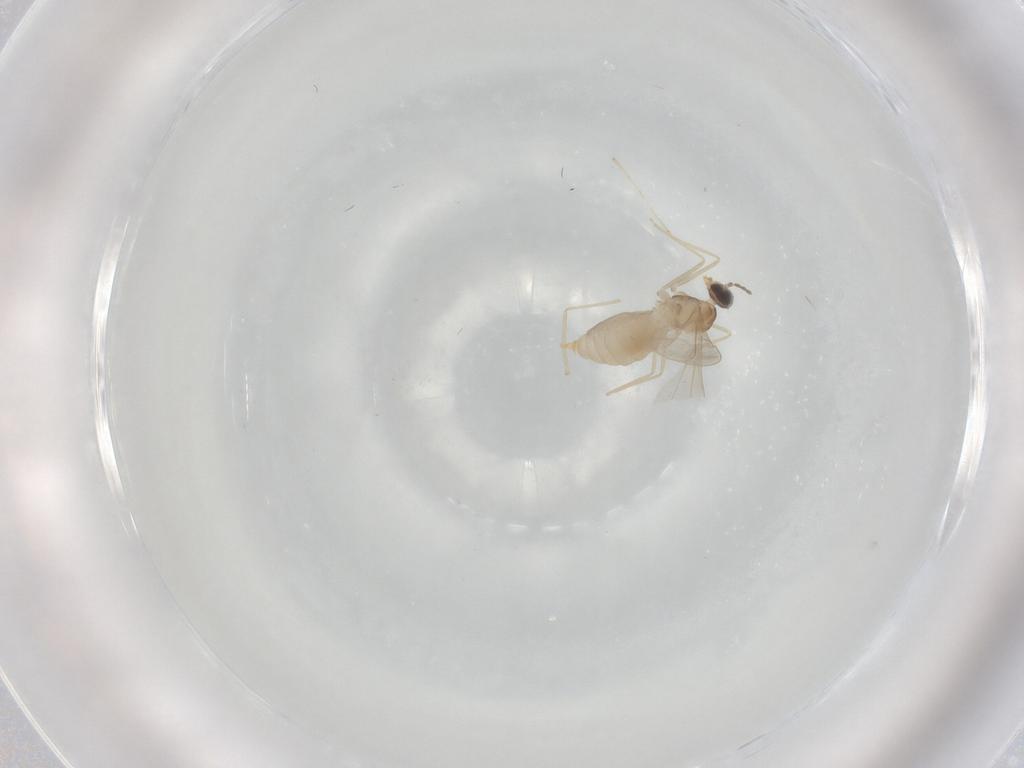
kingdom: Animalia
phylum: Arthropoda
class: Insecta
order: Diptera
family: Cecidomyiidae
